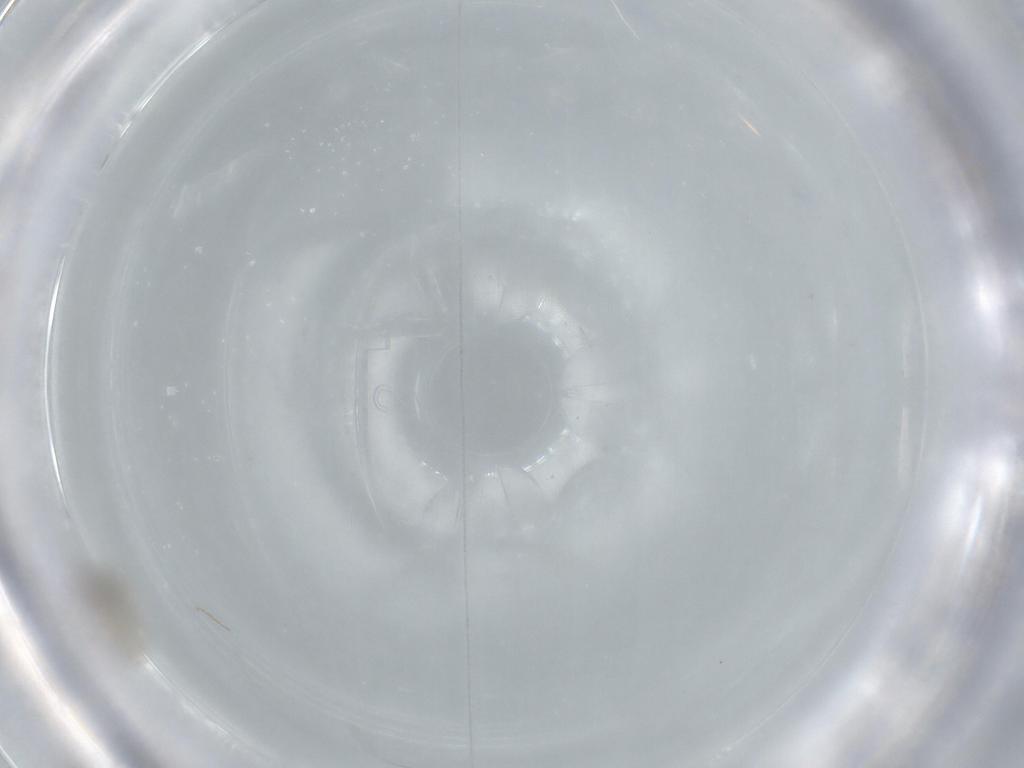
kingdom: Animalia
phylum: Arthropoda
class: Insecta
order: Diptera
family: Cecidomyiidae
